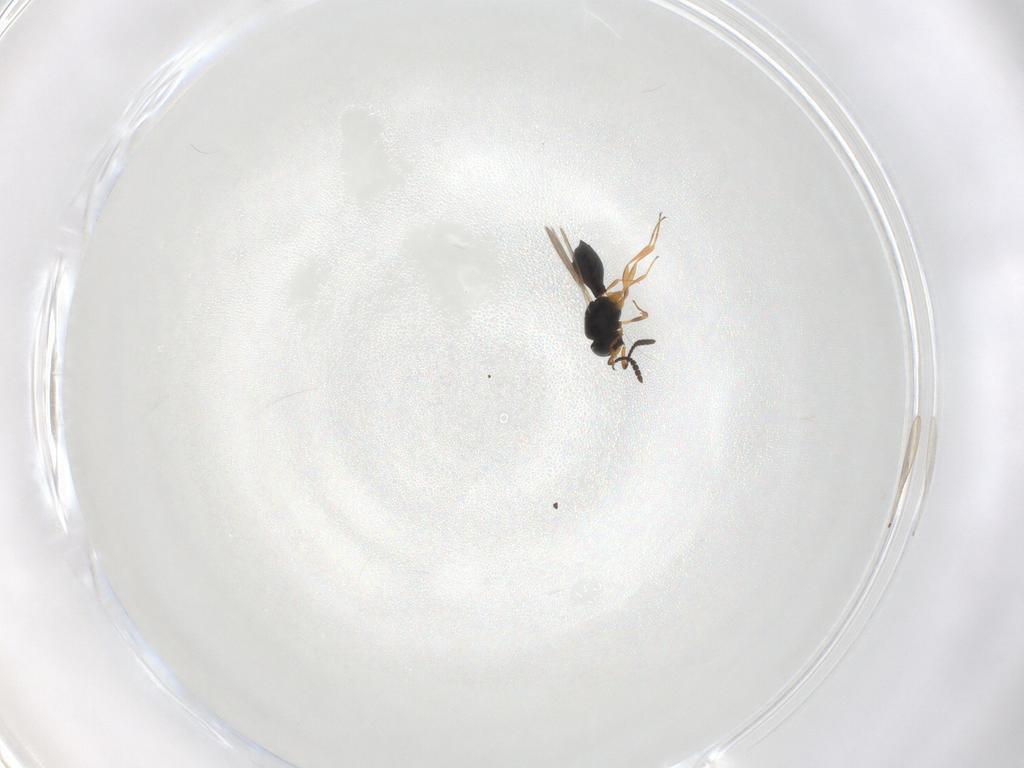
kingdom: Animalia
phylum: Arthropoda
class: Insecta
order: Hymenoptera
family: Scelionidae
